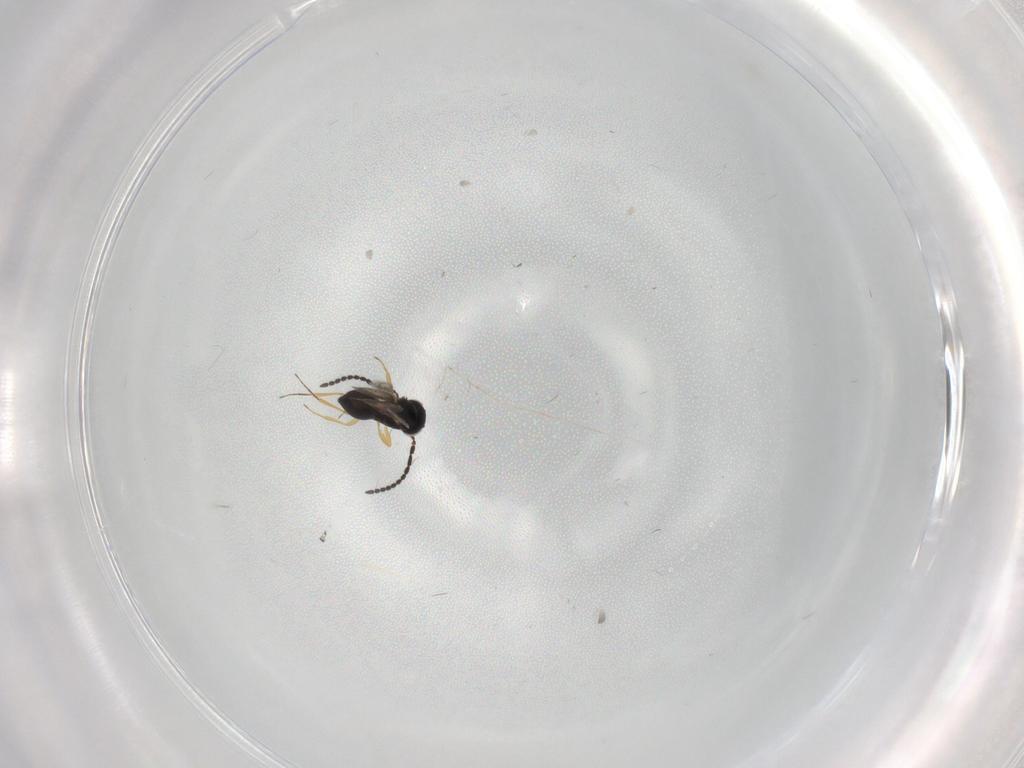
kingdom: Animalia
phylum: Arthropoda
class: Insecta
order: Hymenoptera
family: Scelionidae
